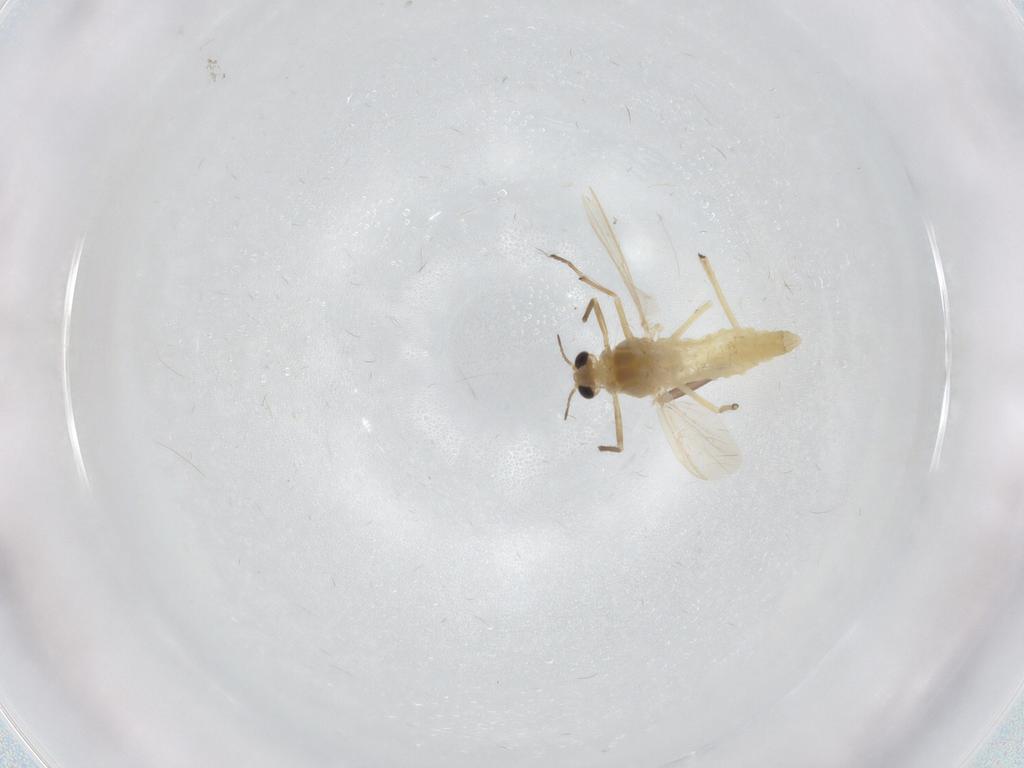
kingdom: Animalia
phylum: Arthropoda
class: Insecta
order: Diptera
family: Chironomidae
